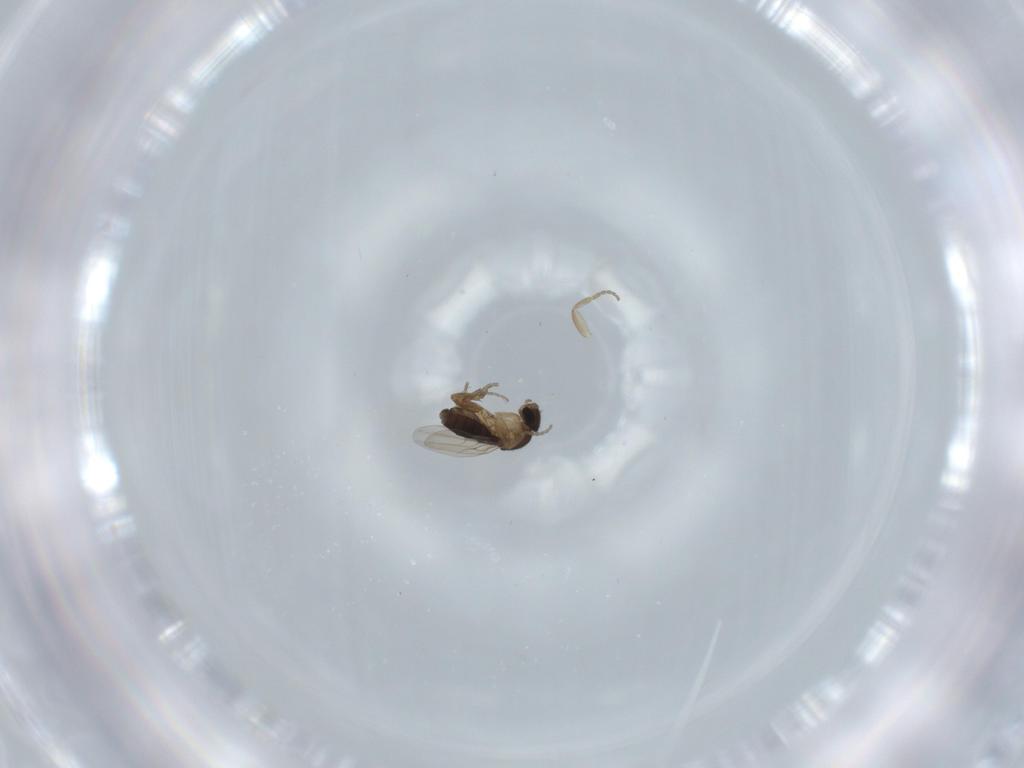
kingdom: Animalia
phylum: Arthropoda
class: Insecta
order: Diptera
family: Phoridae
